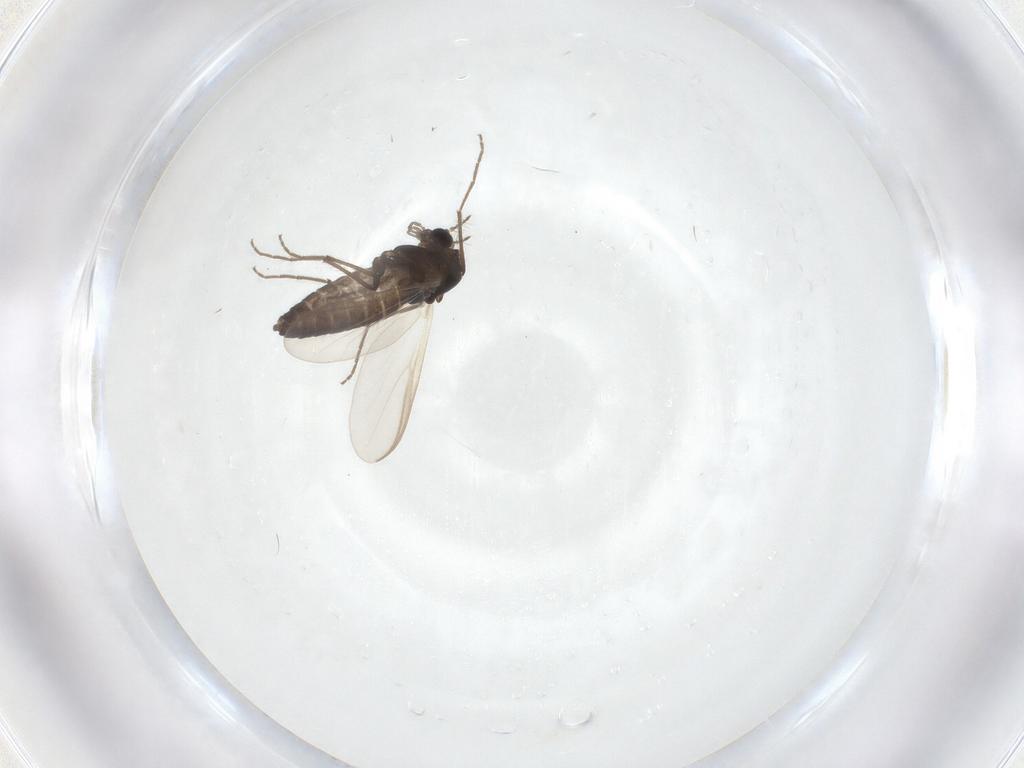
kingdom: Animalia
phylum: Arthropoda
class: Insecta
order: Diptera
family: Chironomidae
